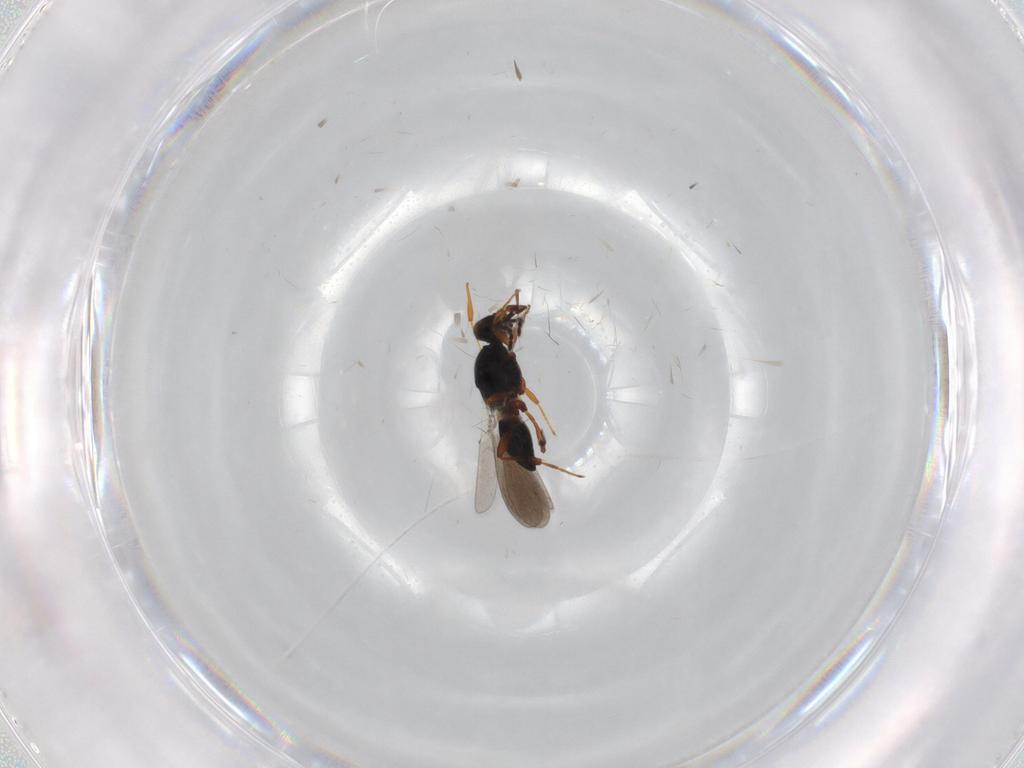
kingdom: Animalia
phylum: Arthropoda
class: Insecta
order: Hymenoptera
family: Platygastridae
